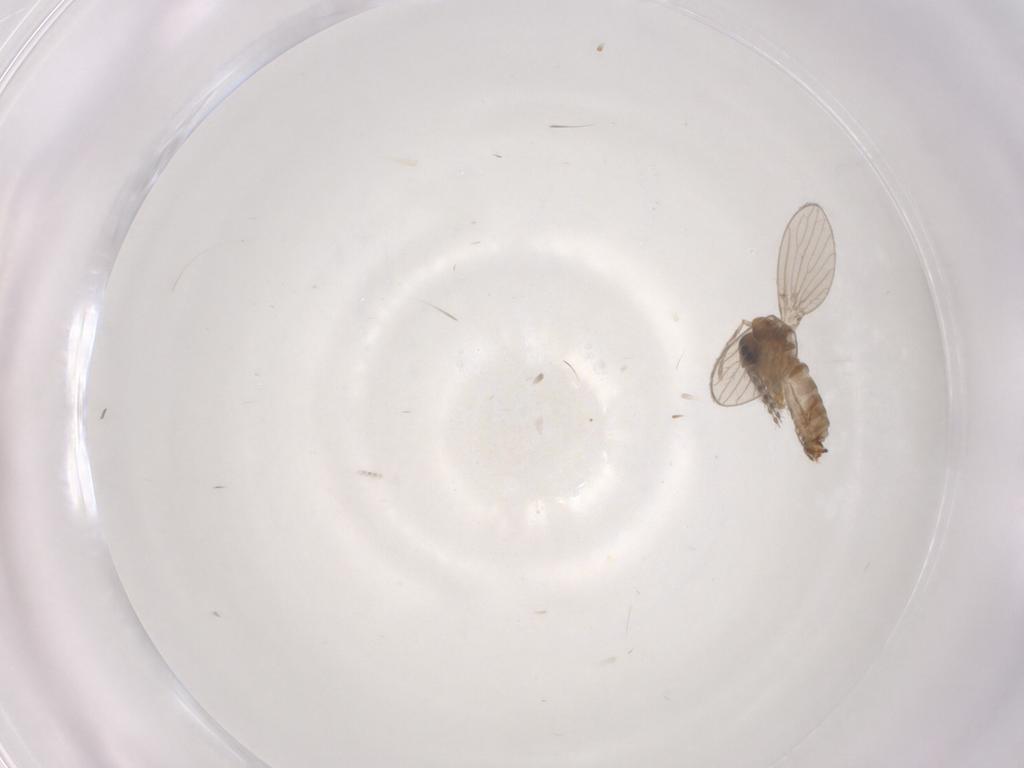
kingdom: Animalia
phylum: Arthropoda
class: Insecta
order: Diptera
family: Psychodidae
